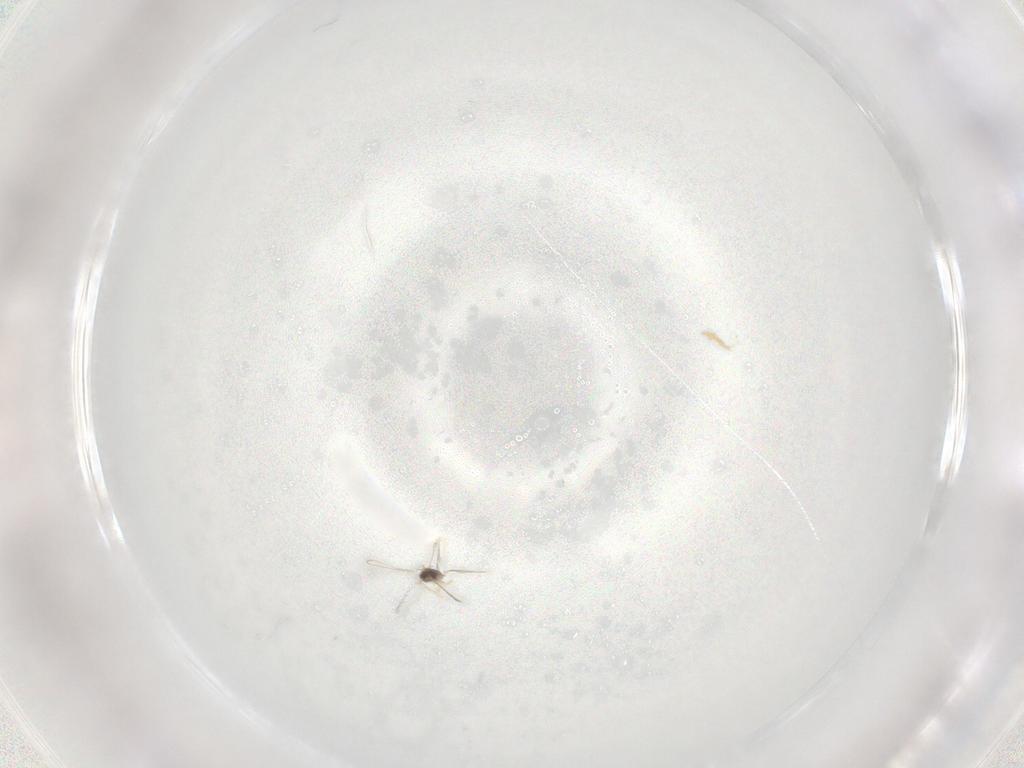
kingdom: Animalia
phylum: Arthropoda
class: Insecta
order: Hymenoptera
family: Mymaridae
